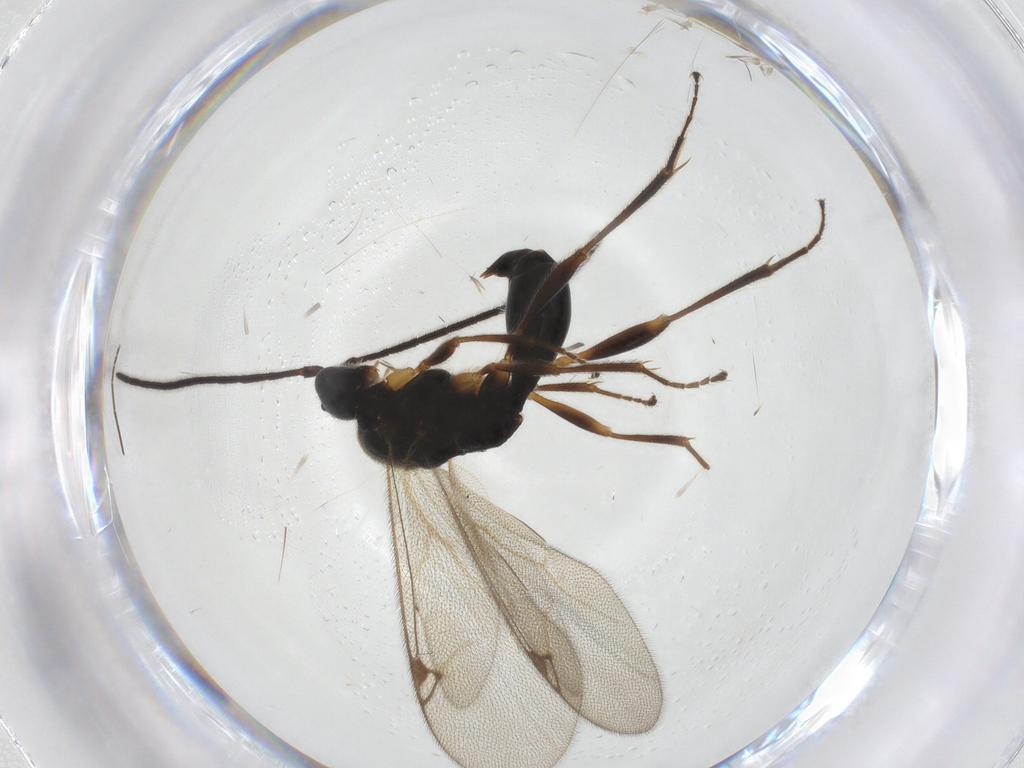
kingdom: Animalia
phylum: Arthropoda
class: Insecta
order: Hymenoptera
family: Proctotrupidae
